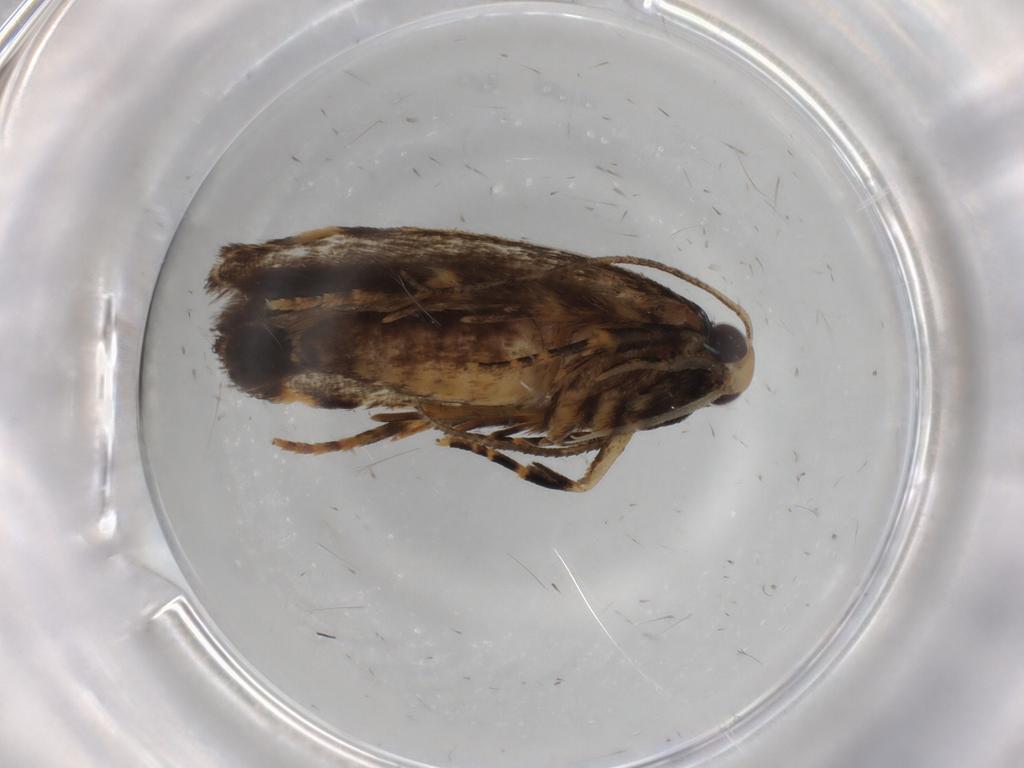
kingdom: Animalia
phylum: Arthropoda
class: Insecta
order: Lepidoptera
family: Gelechiidae
